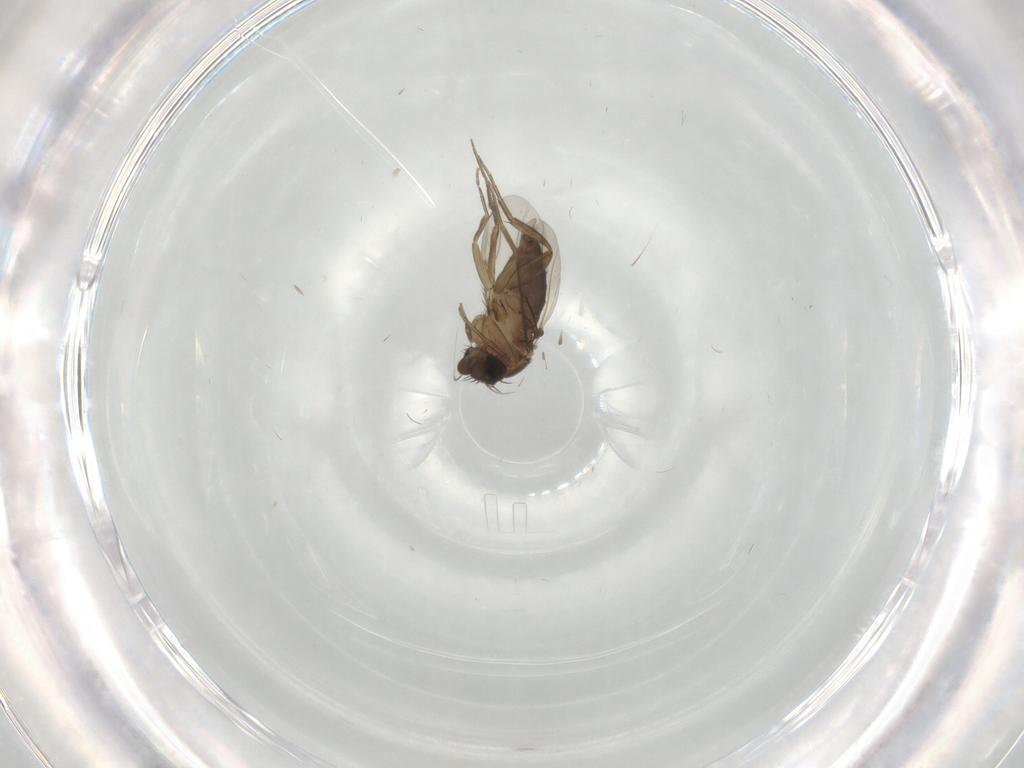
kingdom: Animalia
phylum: Arthropoda
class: Insecta
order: Diptera
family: Phoridae
